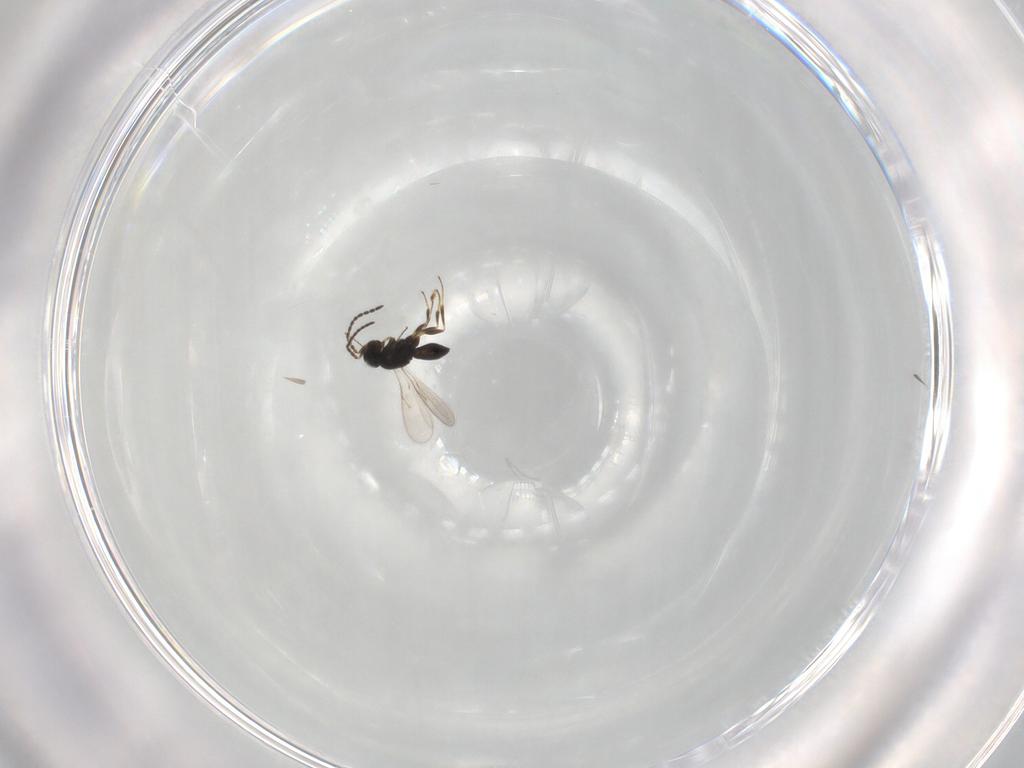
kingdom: Animalia
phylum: Arthropoda
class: Insecta
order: Hymenoptera
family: Scelionidae
